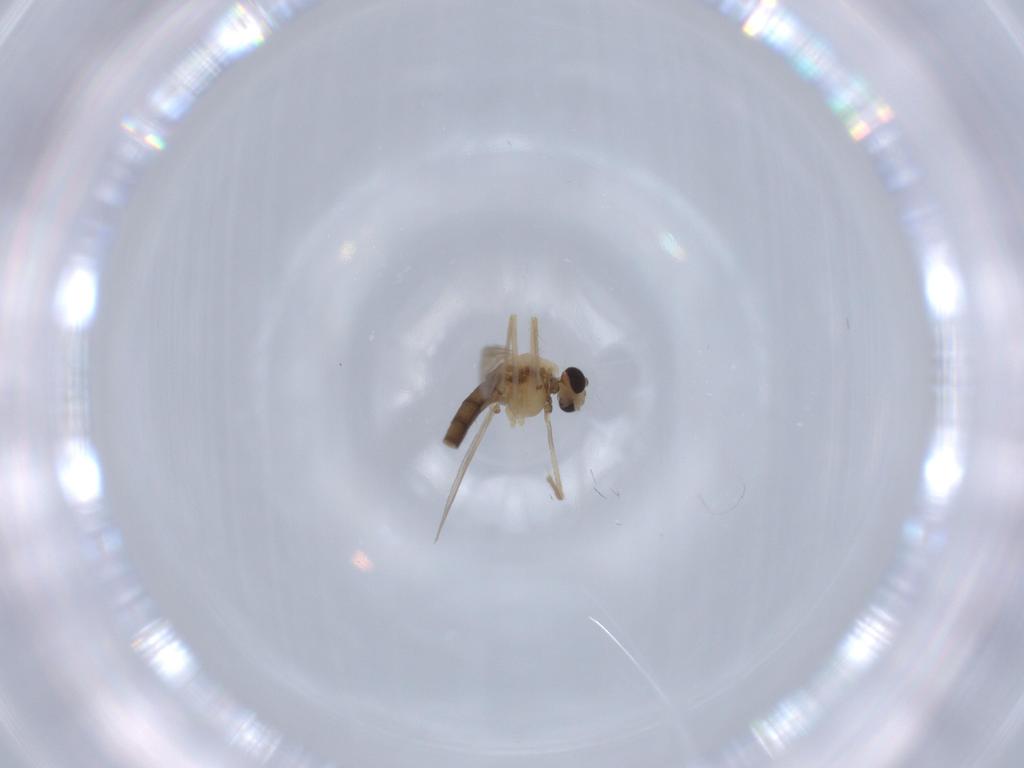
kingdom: Animalia
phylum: Arthropoda
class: Insecta
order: Diptera
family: Chironomidae
